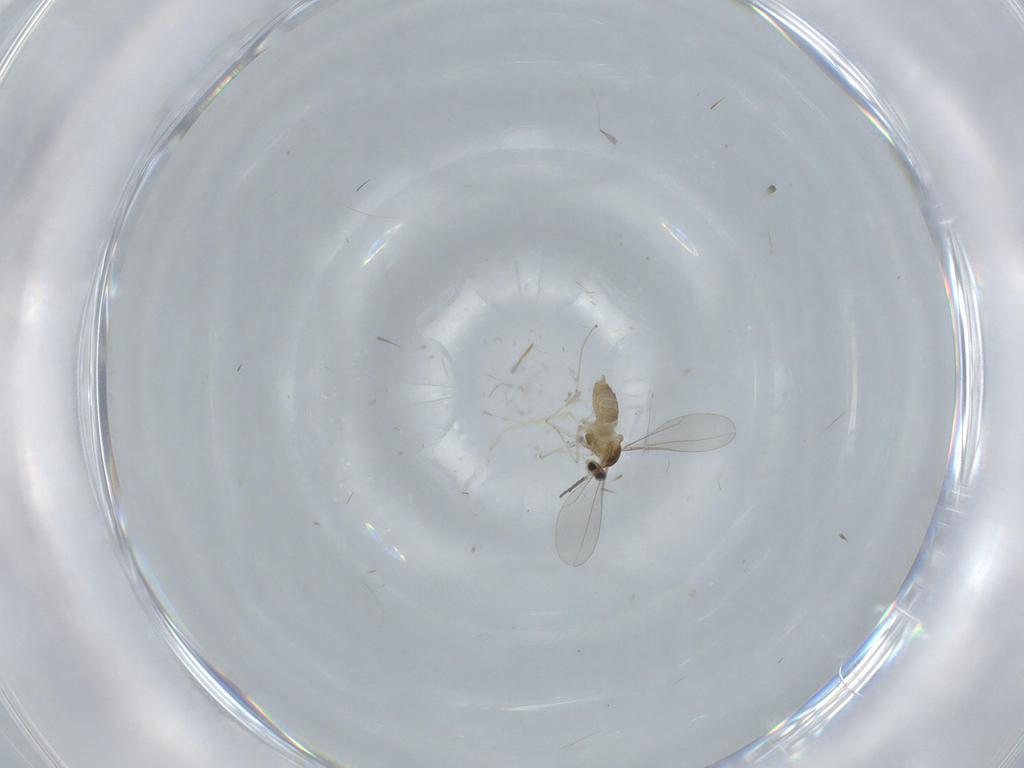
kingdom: Animalia
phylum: Arthropoda
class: Insecta
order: Diptera
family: Cecidomyiidae
